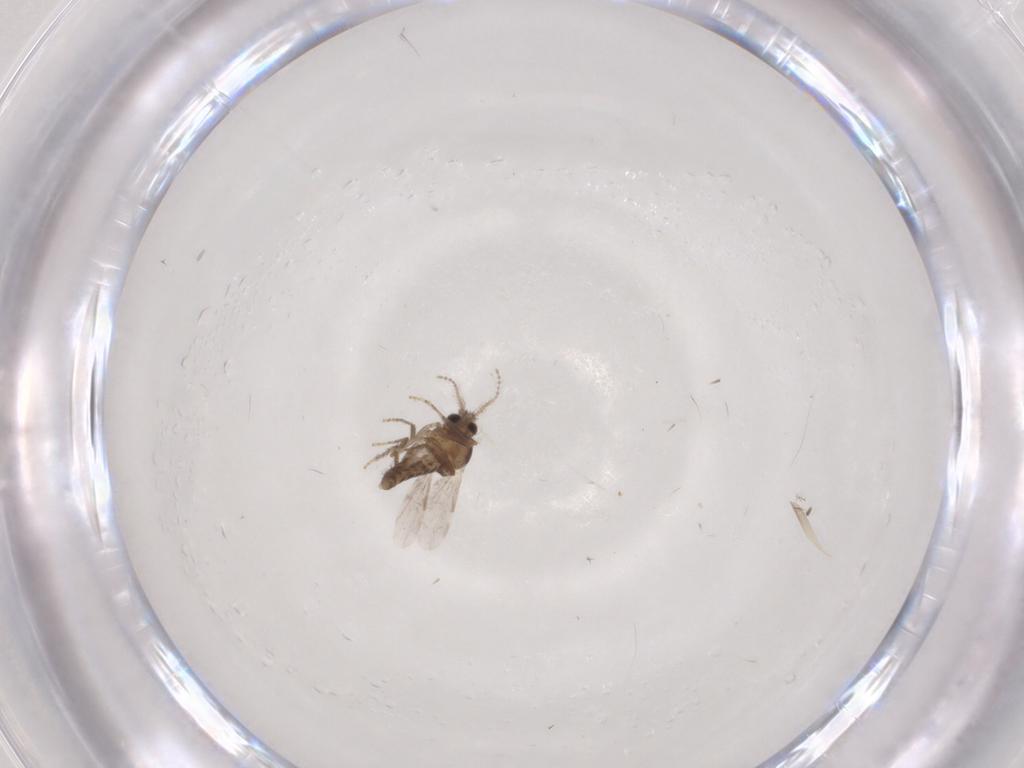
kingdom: Animalia
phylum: Arthropoda
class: Insecta
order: Diptera
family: Ceratopogonidae
